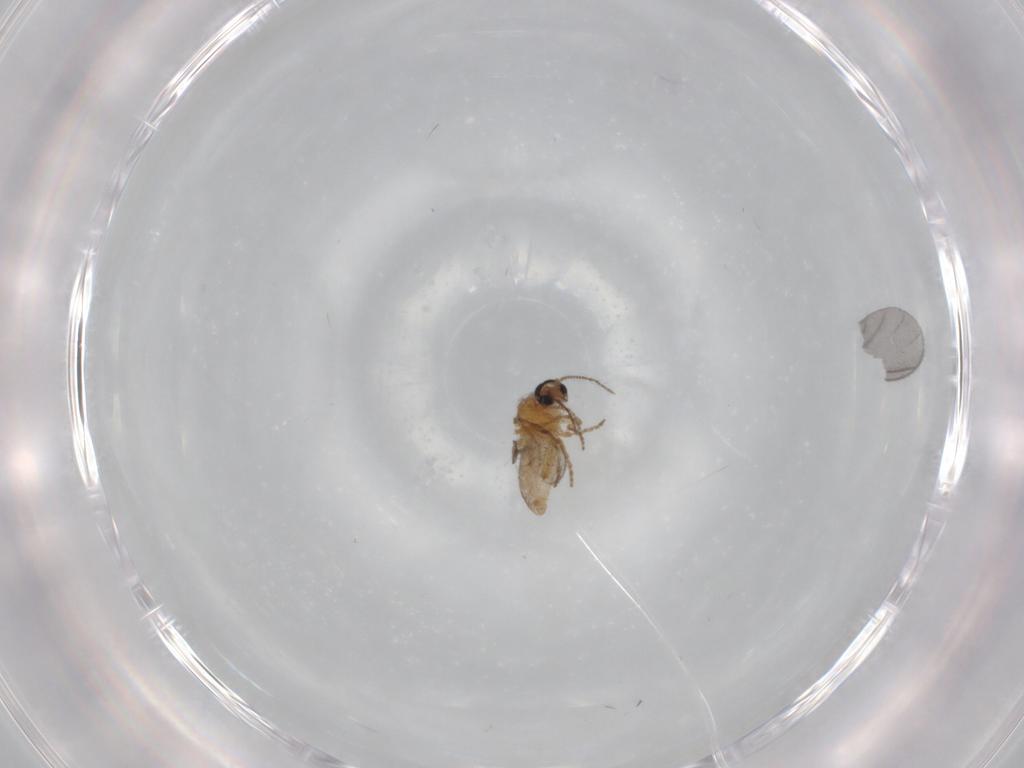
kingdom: Animalia
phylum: Arthropoda
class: Insecta
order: Diptera
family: Ceratopogonidae
